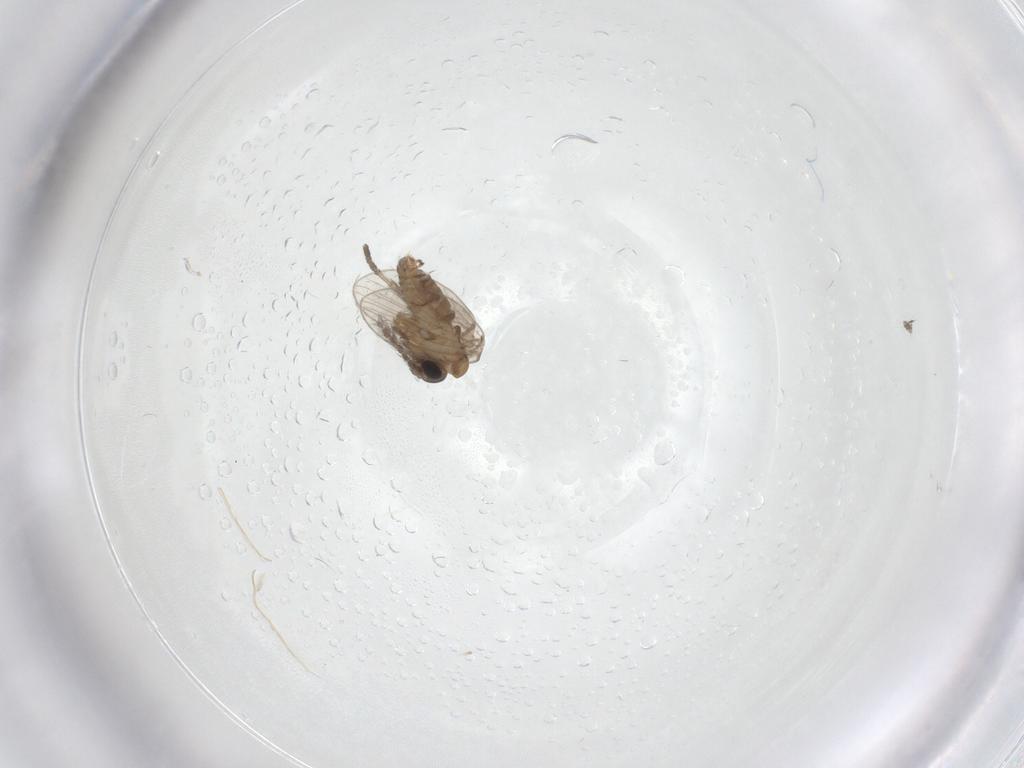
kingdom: Animalia
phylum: Arthropoda
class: Insecta
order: Diptera
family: Psychodidae
